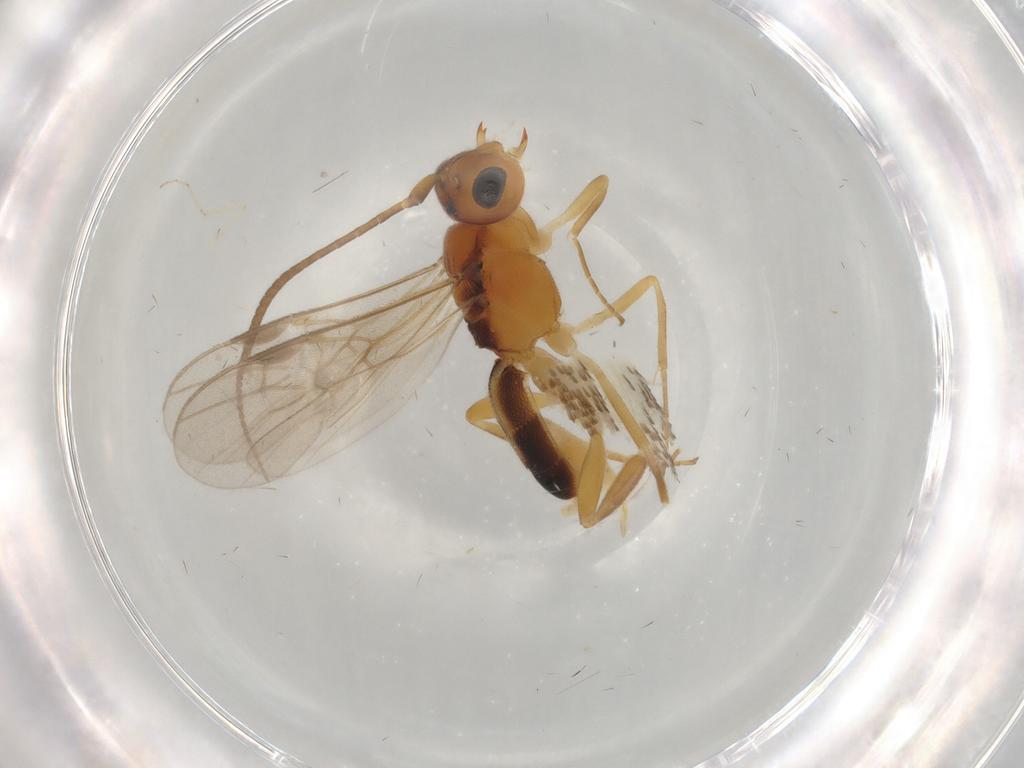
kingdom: Animalia
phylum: Arthropoda
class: Insecta
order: Hymenoptera
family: Braconidae
